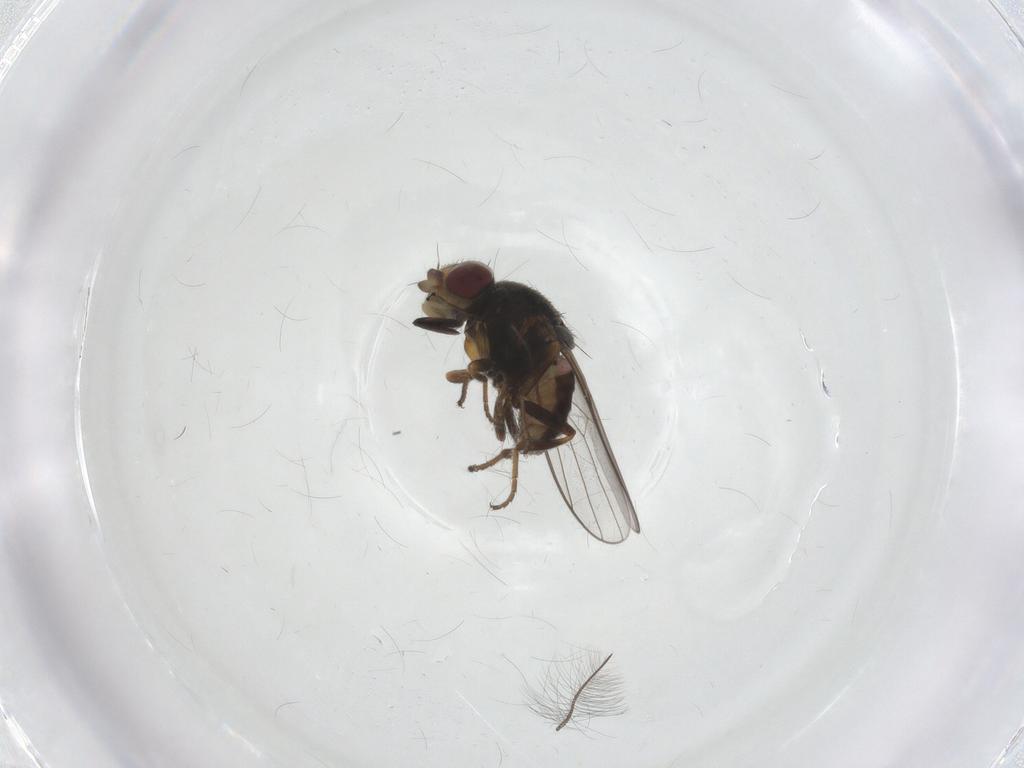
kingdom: Animalia
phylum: Arthropoda
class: Insecta
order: Diptera
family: Chloropidae
